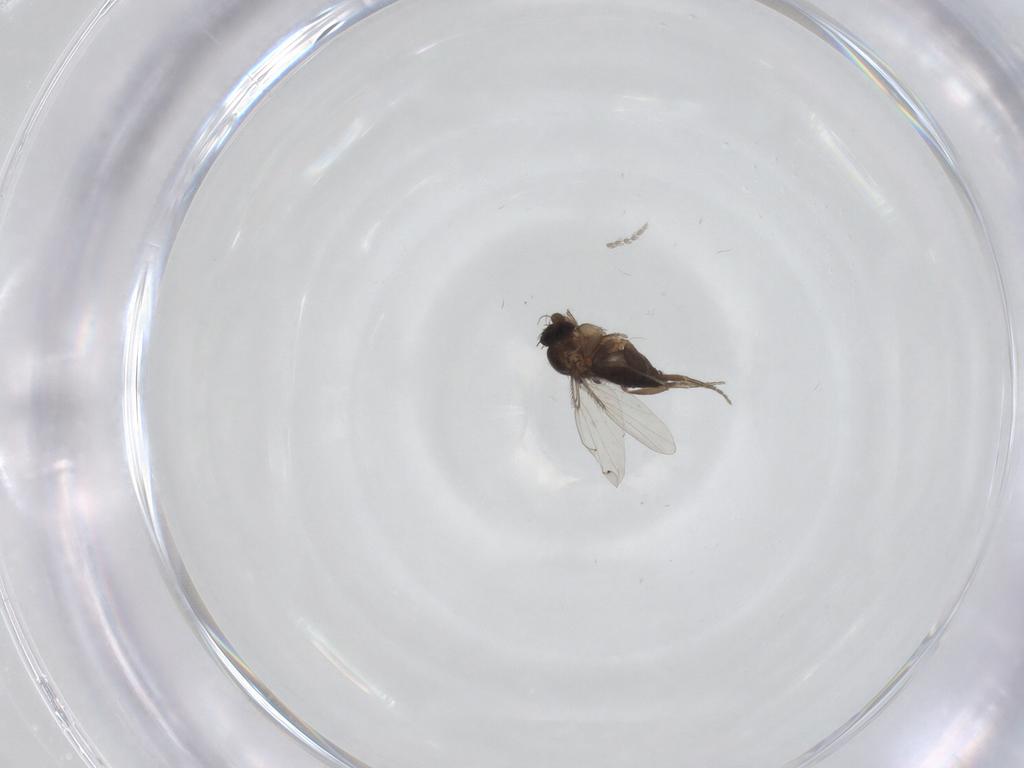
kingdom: Animalia
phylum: Arthropoda
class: Insecta
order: Diptera
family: Phoridae
